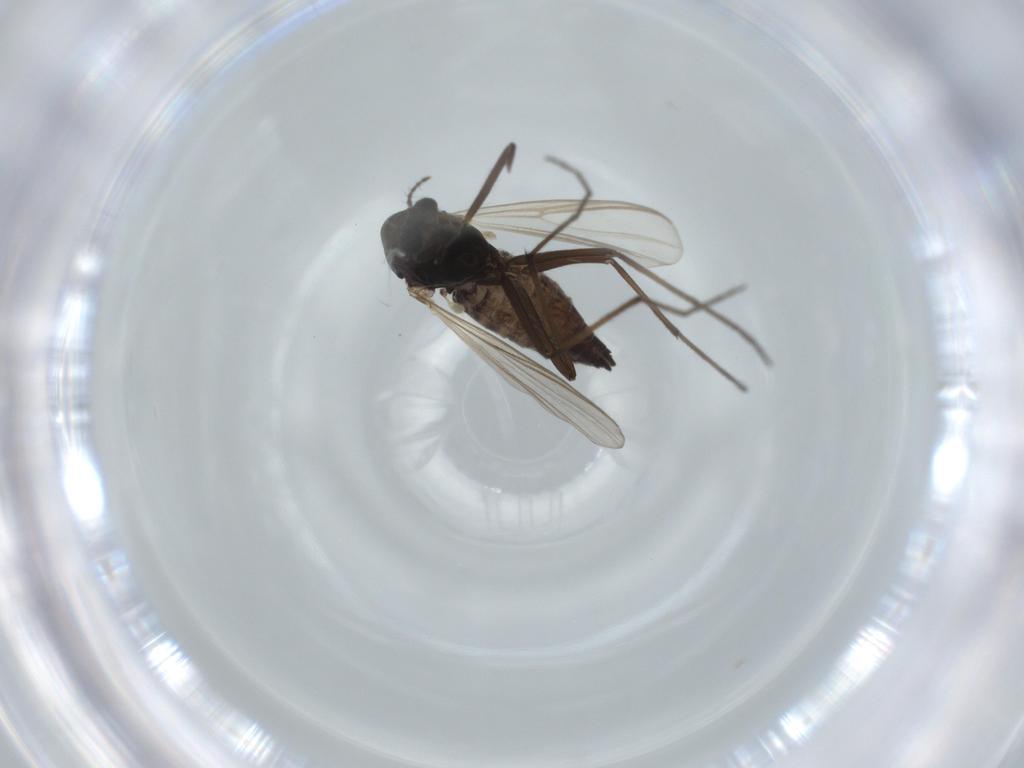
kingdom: Animalia
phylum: Arthropoda
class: Insecta
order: Diptera
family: Chironomidae
